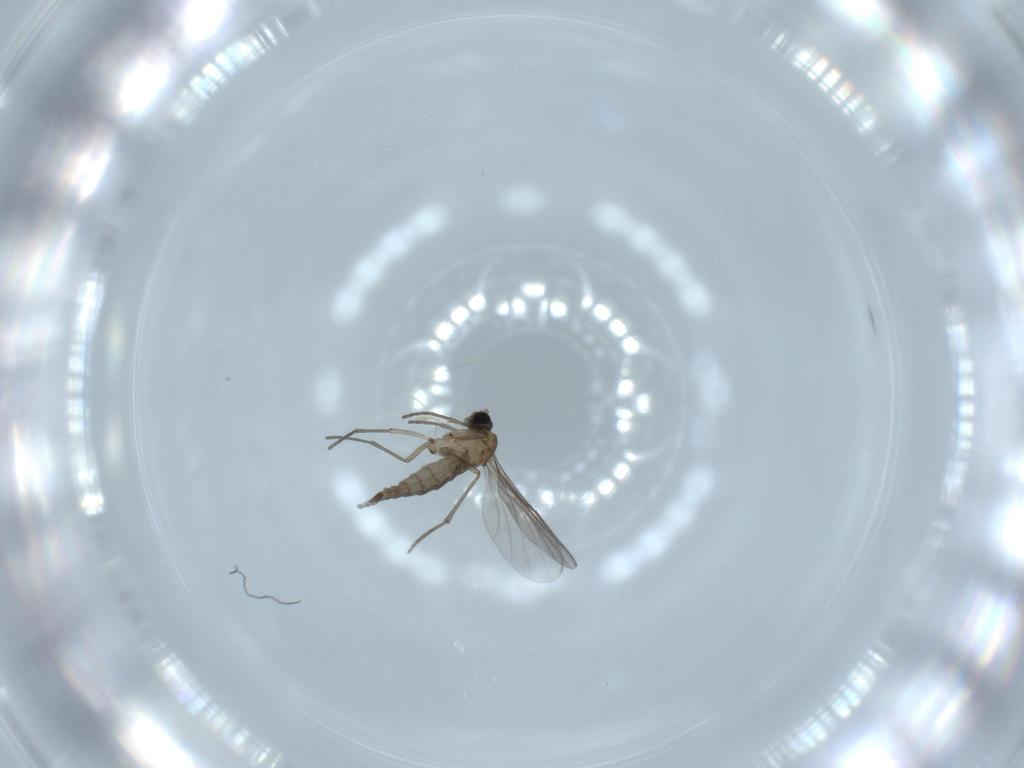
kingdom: Animalia
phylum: Arthropoda
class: Insecta
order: Diptera
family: Sciaridae
